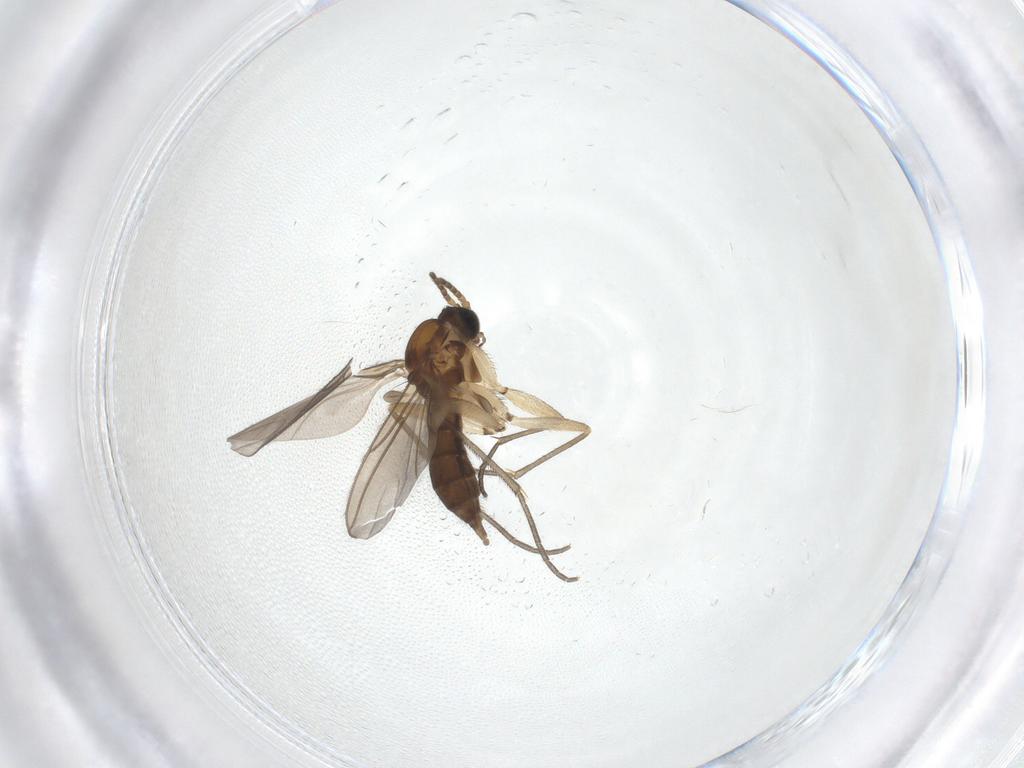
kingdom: Animalia
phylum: Arthropoda
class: Insecta
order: Diptera
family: Sciaridae
